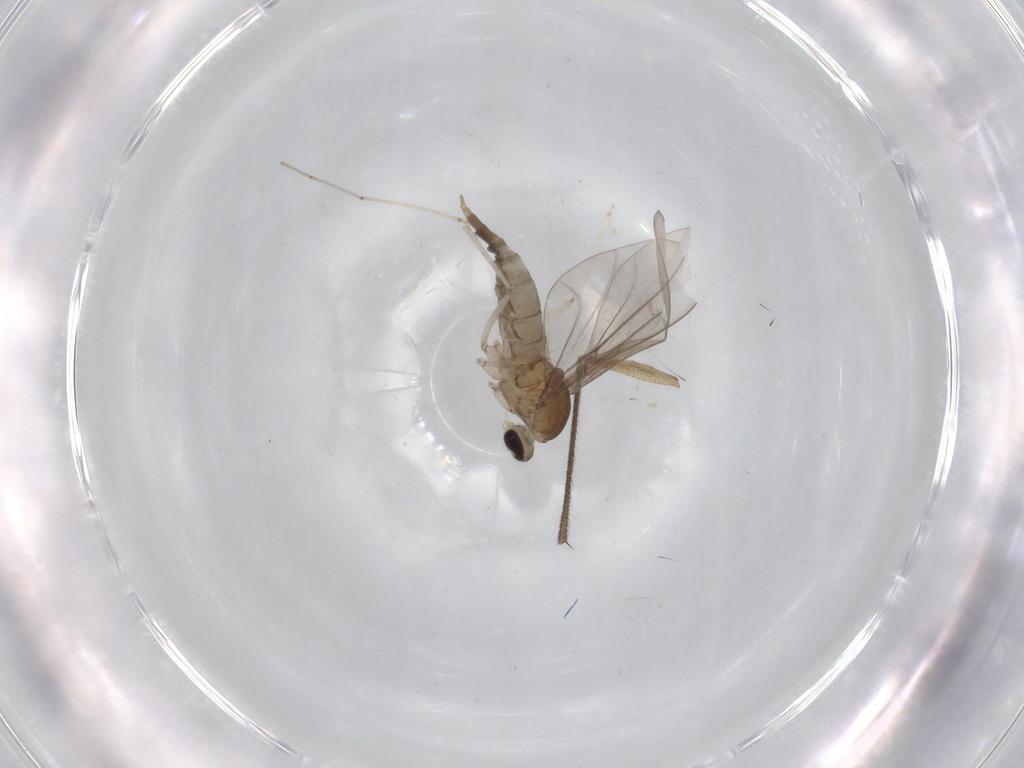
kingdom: Animalia
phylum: Arthropoda
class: Insecta
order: Diptera
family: Cecidomyiidae
